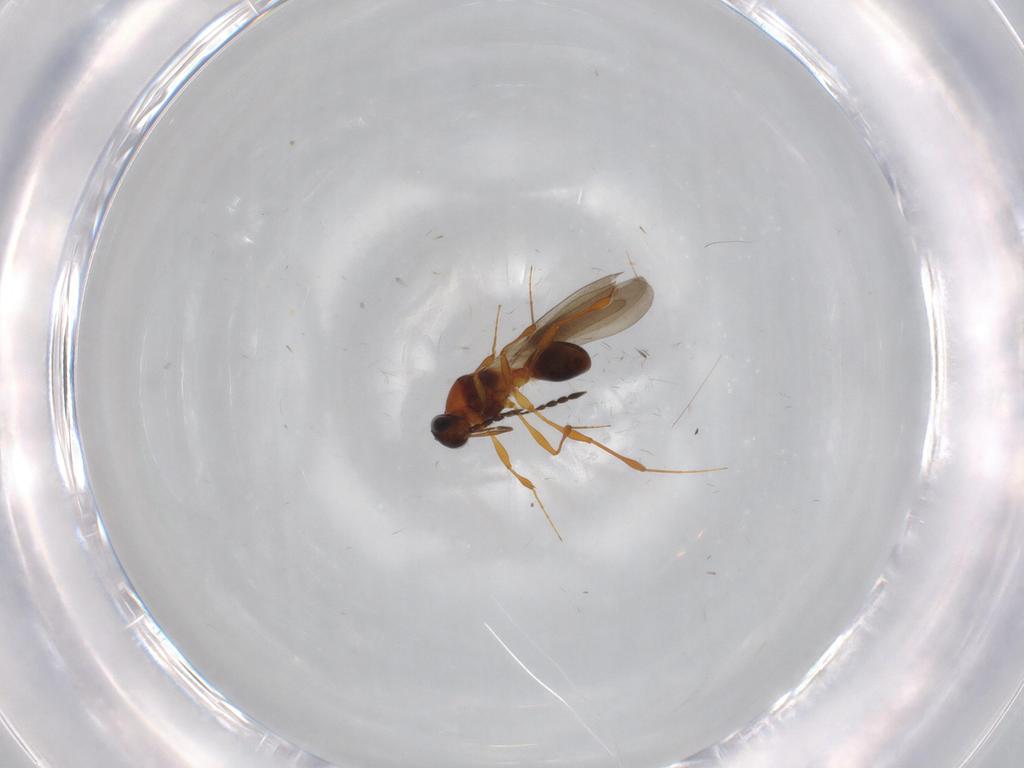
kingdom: Animalia
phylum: Arthropoda
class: Insecta
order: Hymenoptera
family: Platygastridae
